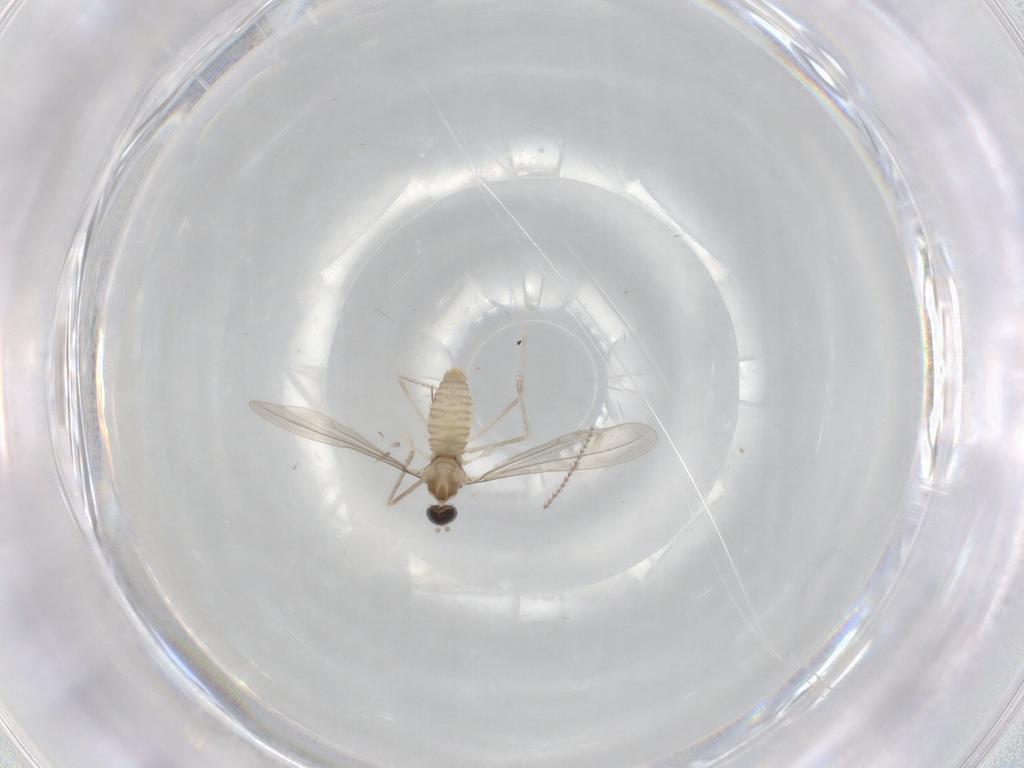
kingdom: Animalia
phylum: Arthropoda
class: Insecta
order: Diptera
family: Cecidomyiidae
